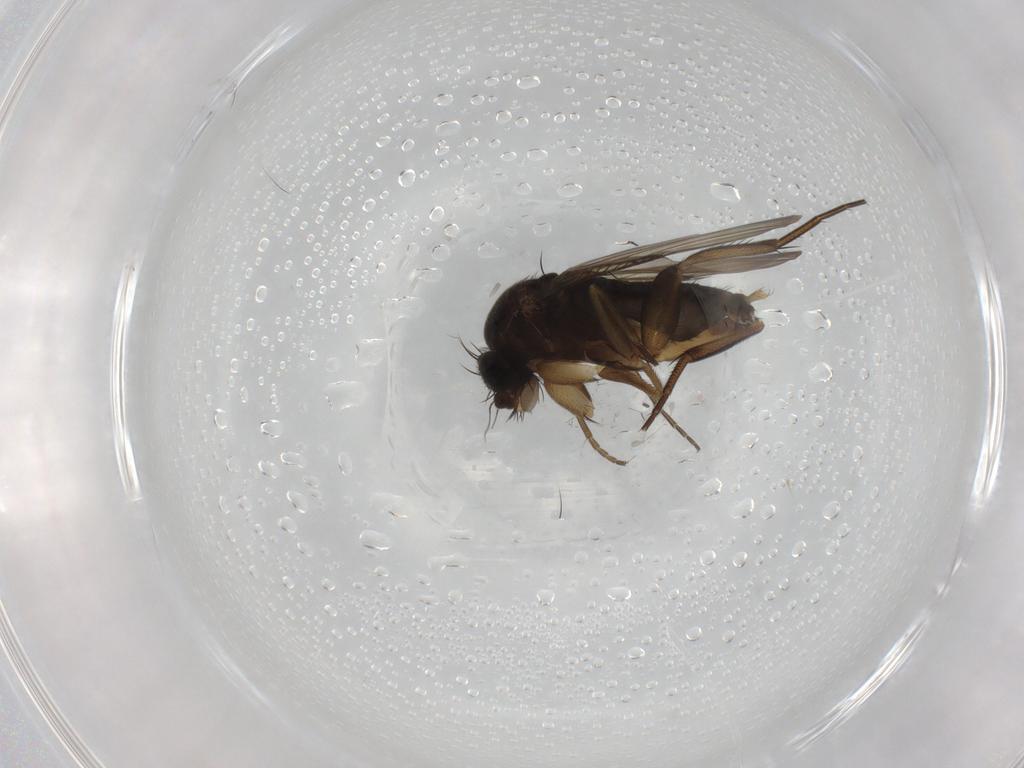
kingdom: Animalia
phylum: Arthropoda
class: Insecta
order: Diptera
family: Phoridae
